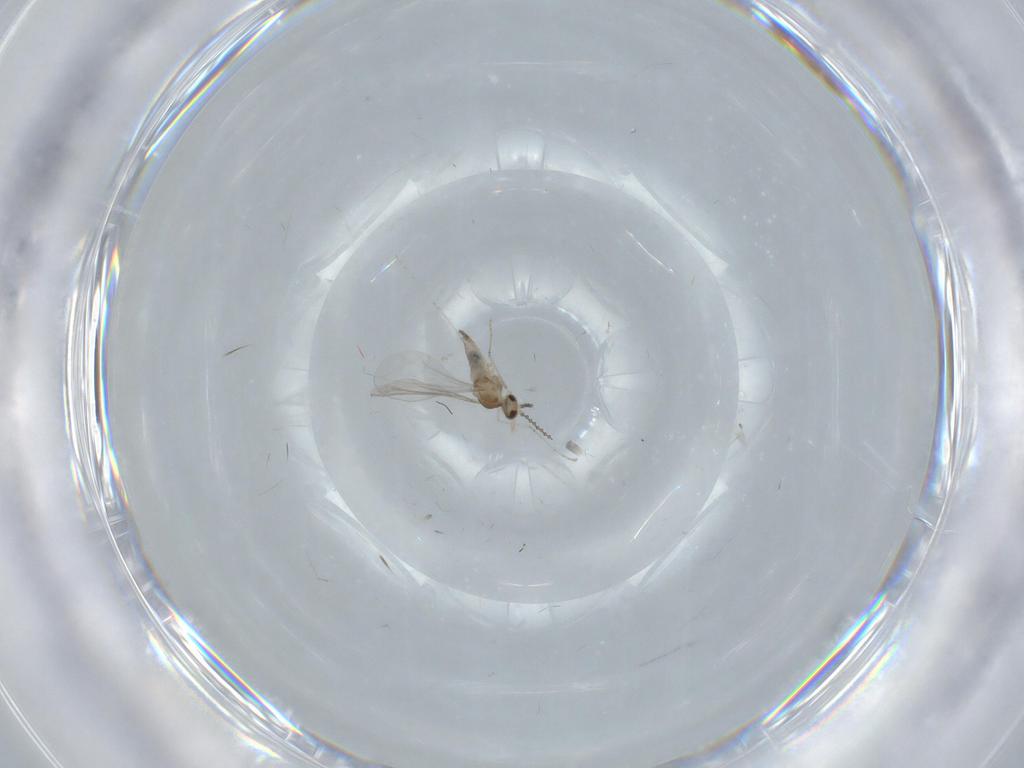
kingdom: Animalia
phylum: Arthropoda
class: Insecta
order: Diptera
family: Cecidomyiidae
